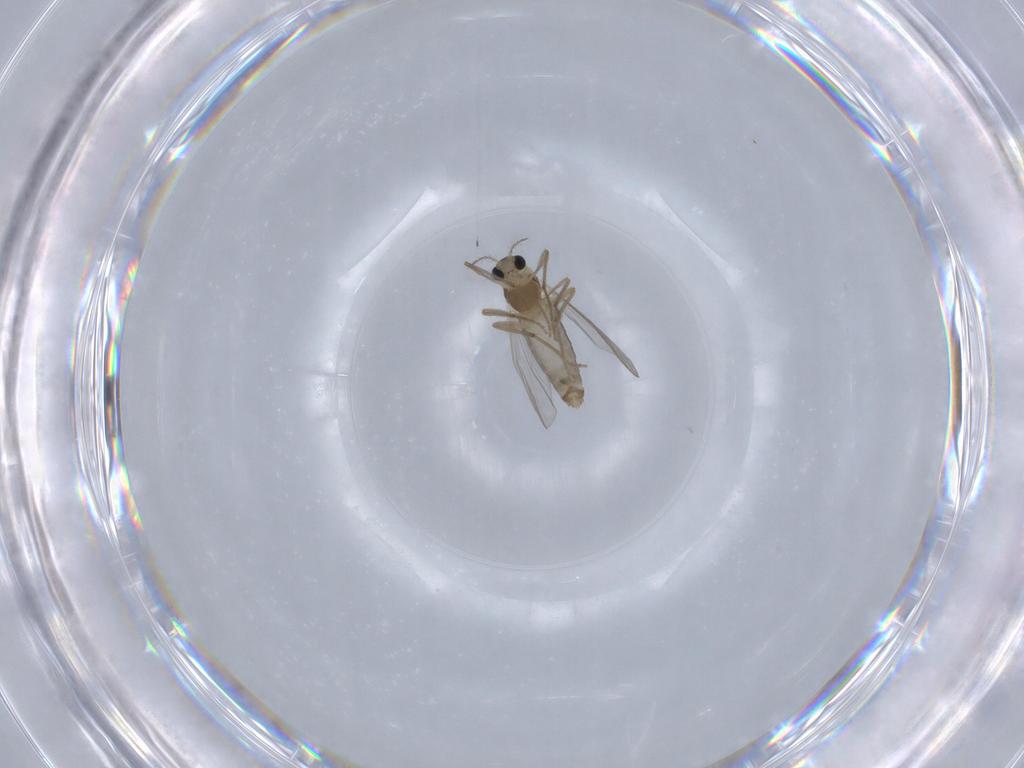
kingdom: Animalia
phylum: Arthropoda
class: Insecta
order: Diptera
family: Chironomidae
